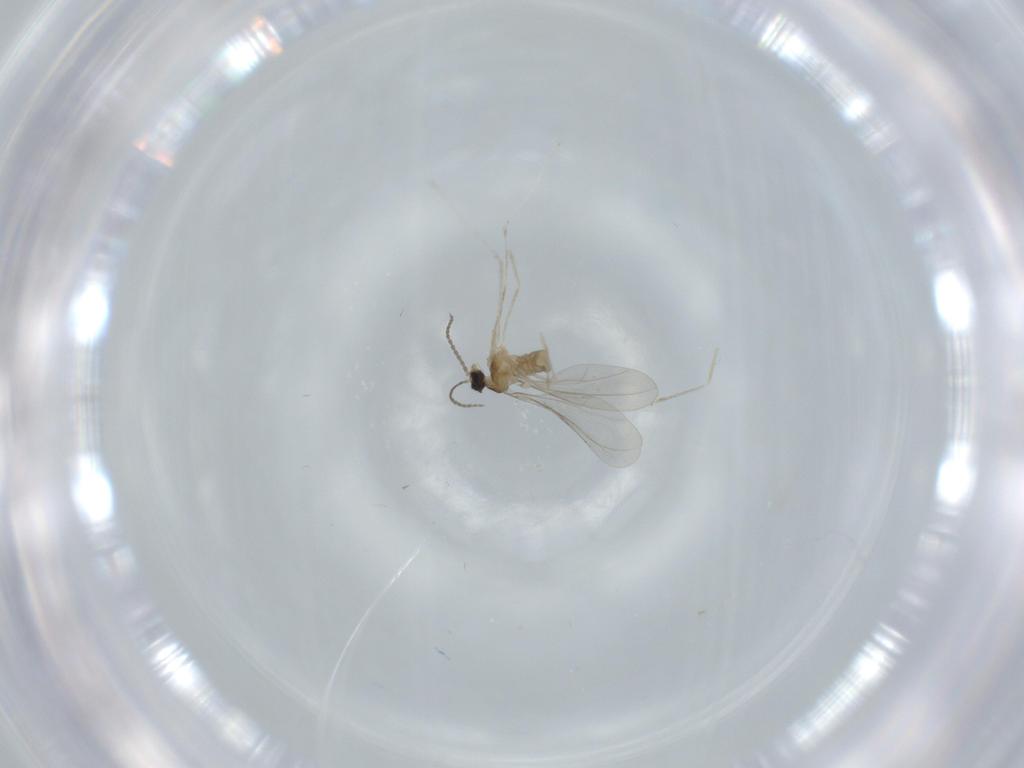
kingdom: Animalia
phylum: Arthropoda
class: Insecta
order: Diptera
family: Cecidomyiidae
